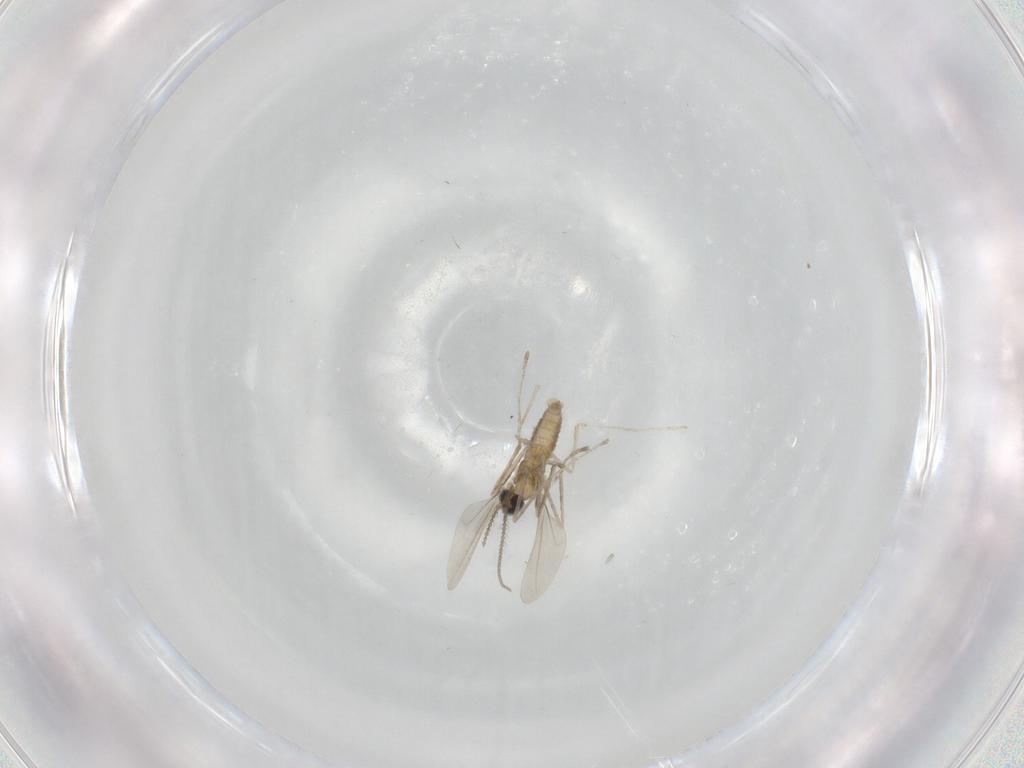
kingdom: Animalia
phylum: Arthropoda
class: Insecta
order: Diptera
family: Cecidomyiidae
